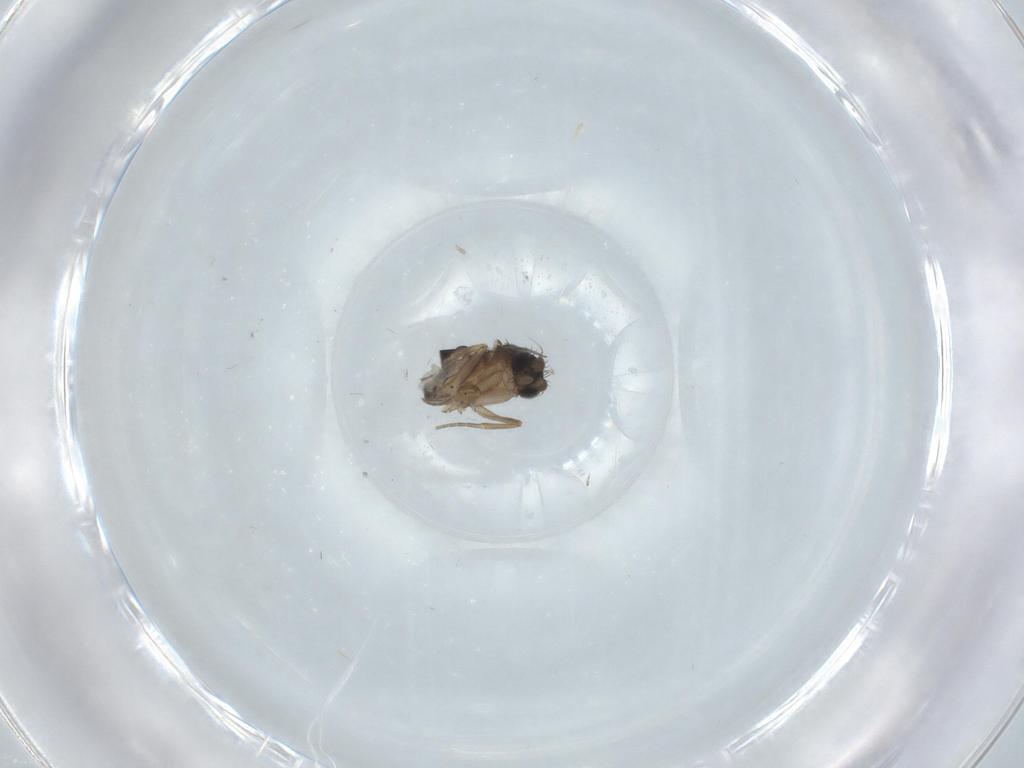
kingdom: Animalia
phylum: Arthropoda
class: Insecta
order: Diptera
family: Phoridae
